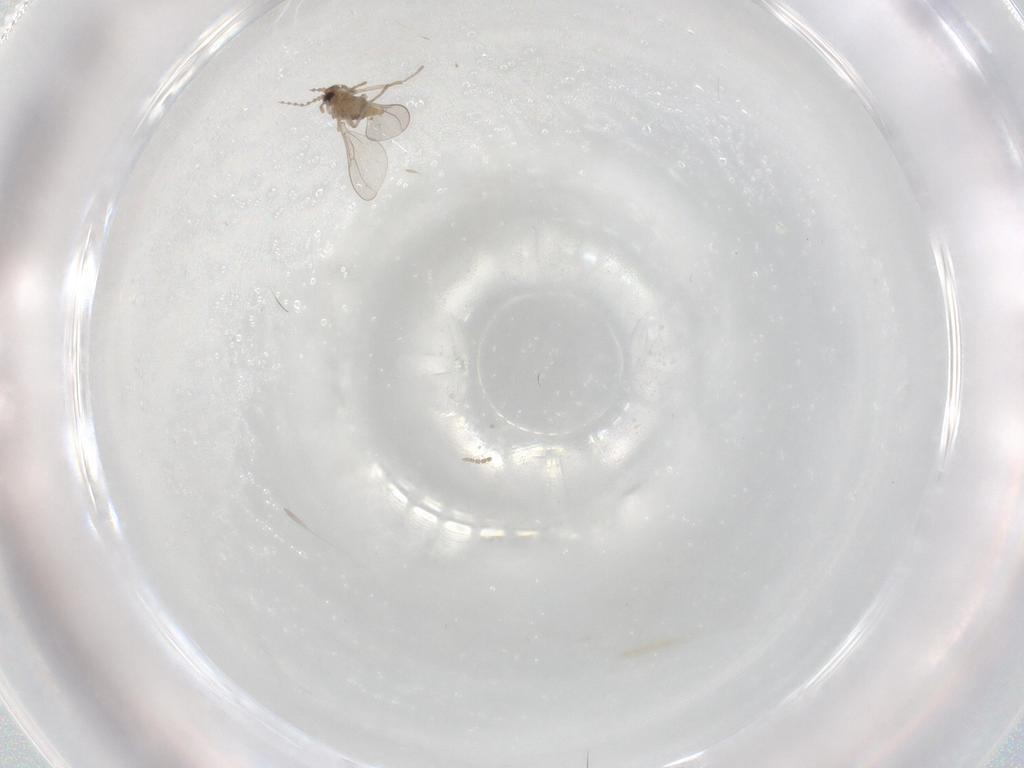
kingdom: Animalia
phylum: Arthropoda
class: Insecta
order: Diptera
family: Cecidomyiidae
